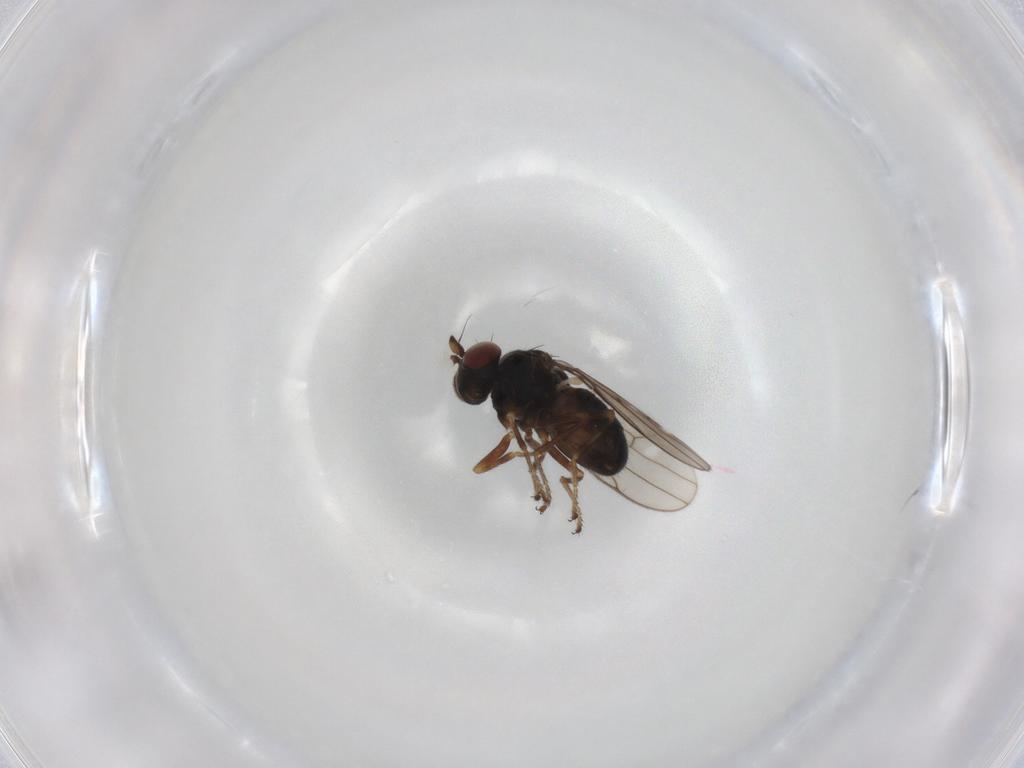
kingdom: Animalia
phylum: Arthropoda
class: Insecta
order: Diptera
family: Ephydridae
